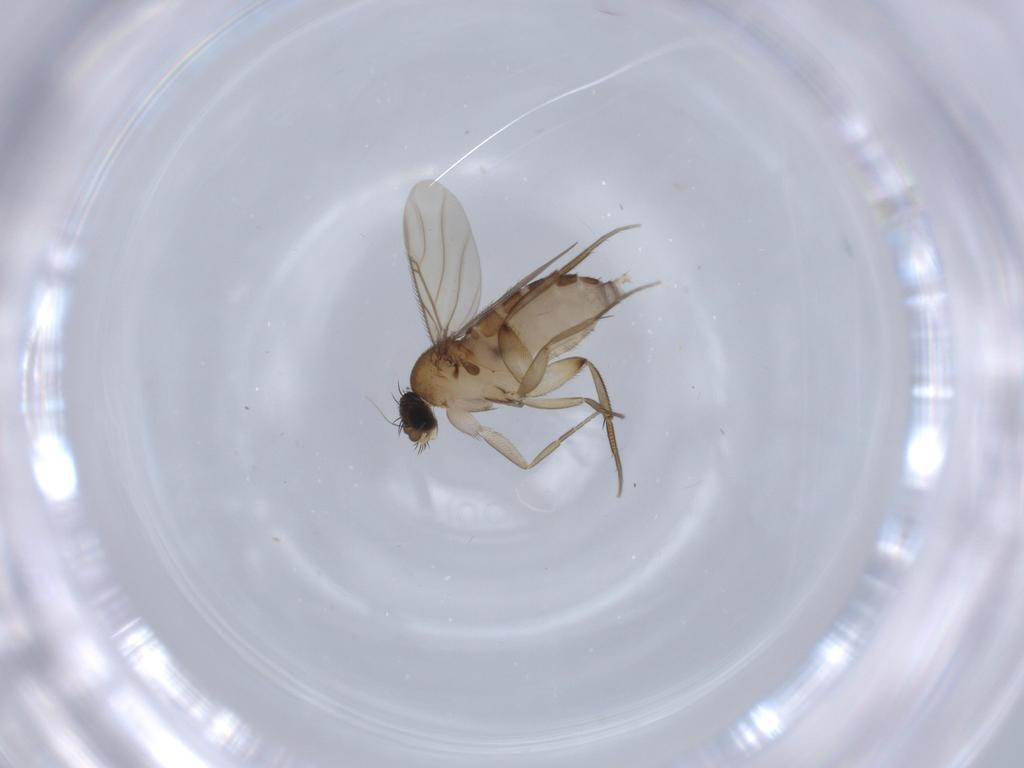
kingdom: Animalia
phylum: Arthropoda
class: Insecta
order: Diptera
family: Phoridae
